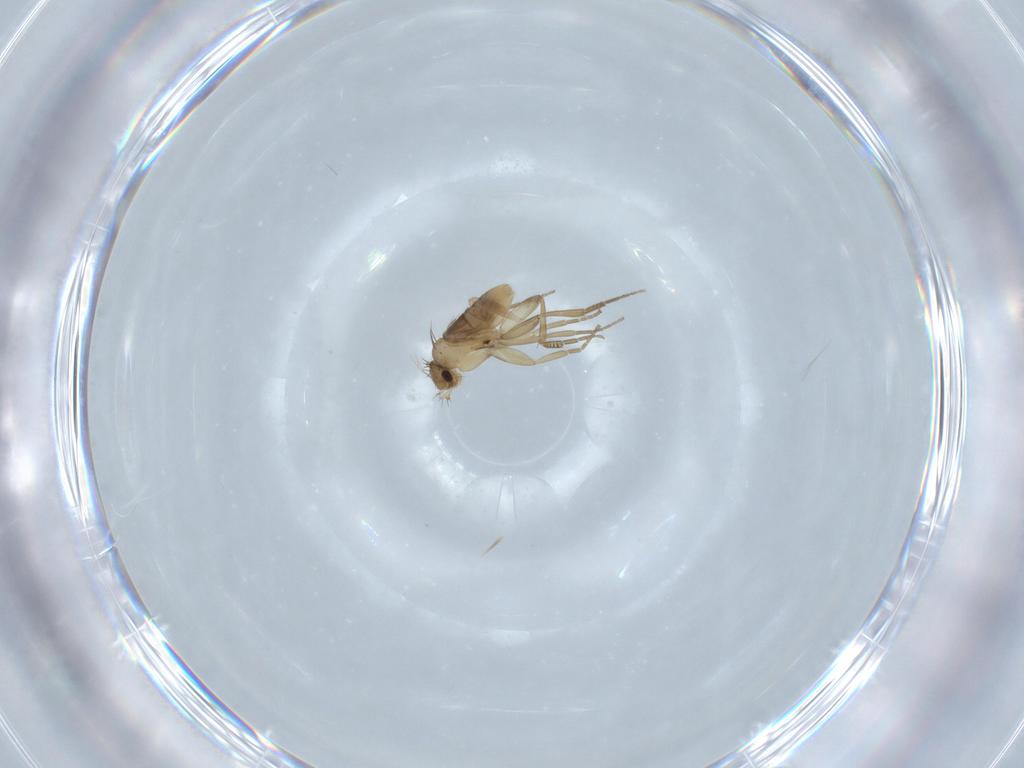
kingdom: Animalia
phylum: Arthropoda
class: Insecta
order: Diptera
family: Phoridae
